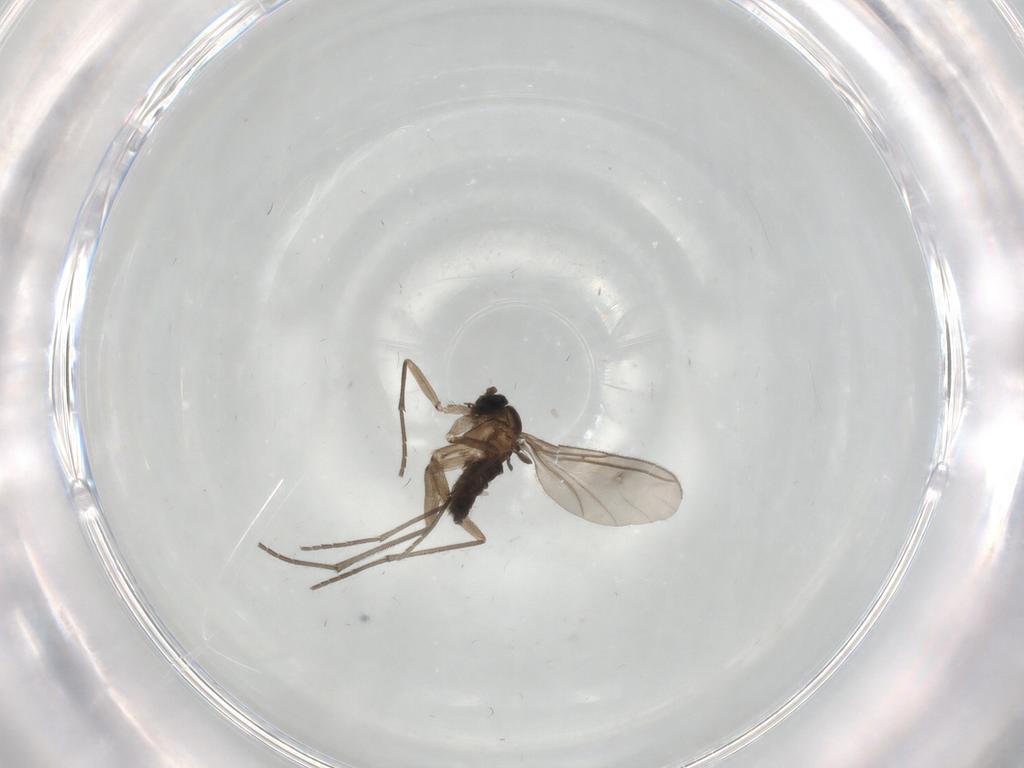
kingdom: Animalia
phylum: Arthropoda
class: Insecta
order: Diptera
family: Sciaridae
